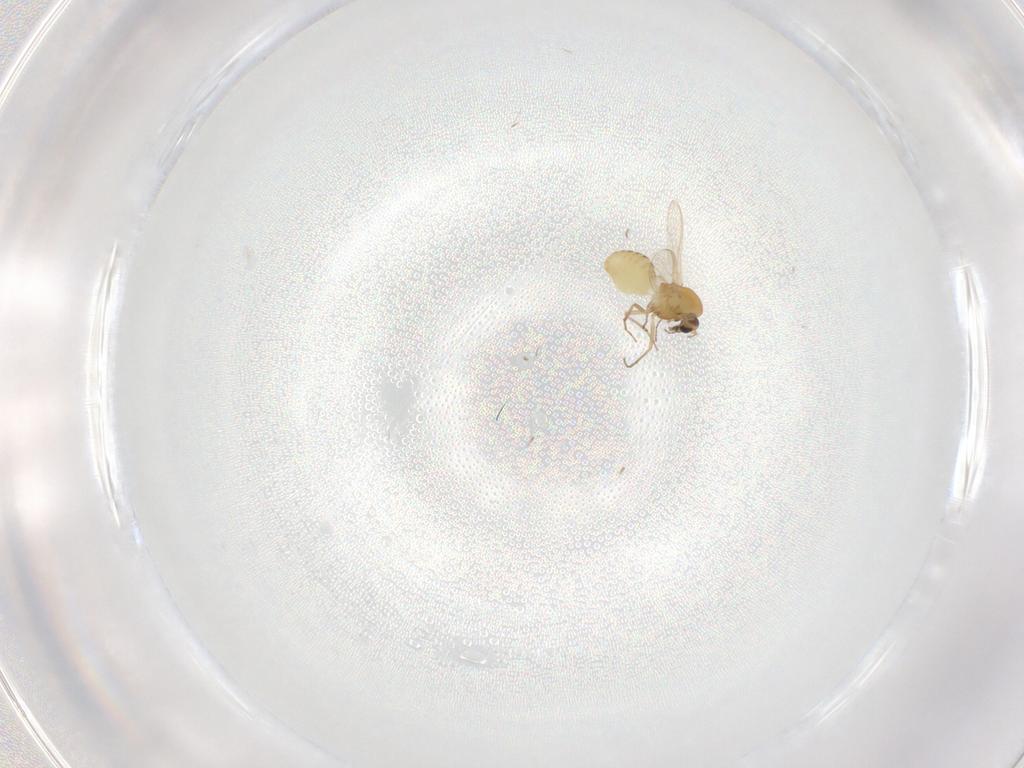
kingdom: Animalia
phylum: Arthropoda
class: Insecta
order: Diptera
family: Chironomidae
